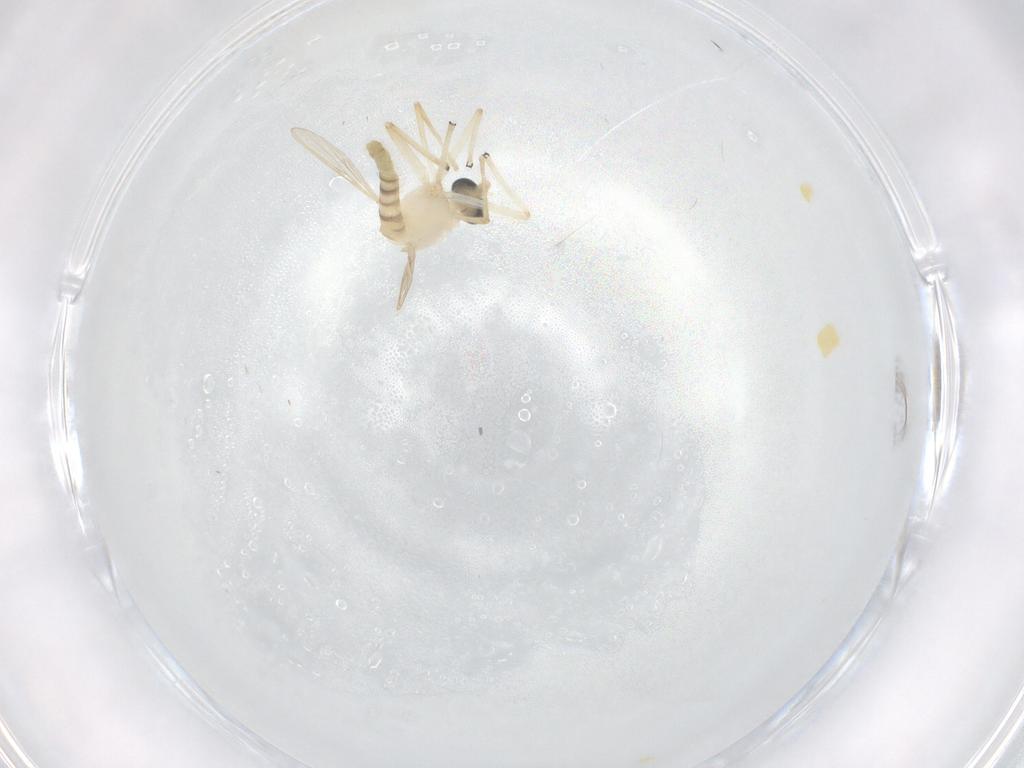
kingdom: Animalia
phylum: Arthropoda
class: Insecta
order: Diptera
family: Chironomidae
